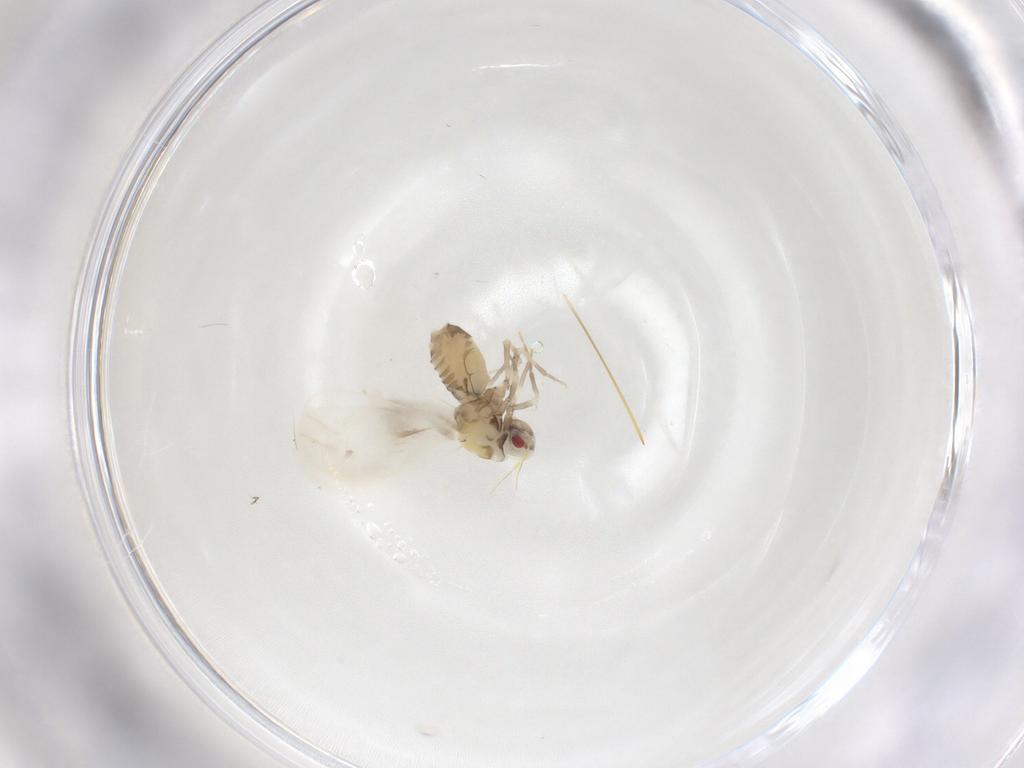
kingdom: Animalia
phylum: Arthropoda
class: Insecta
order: Hemiptera
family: Aleyrodidae
